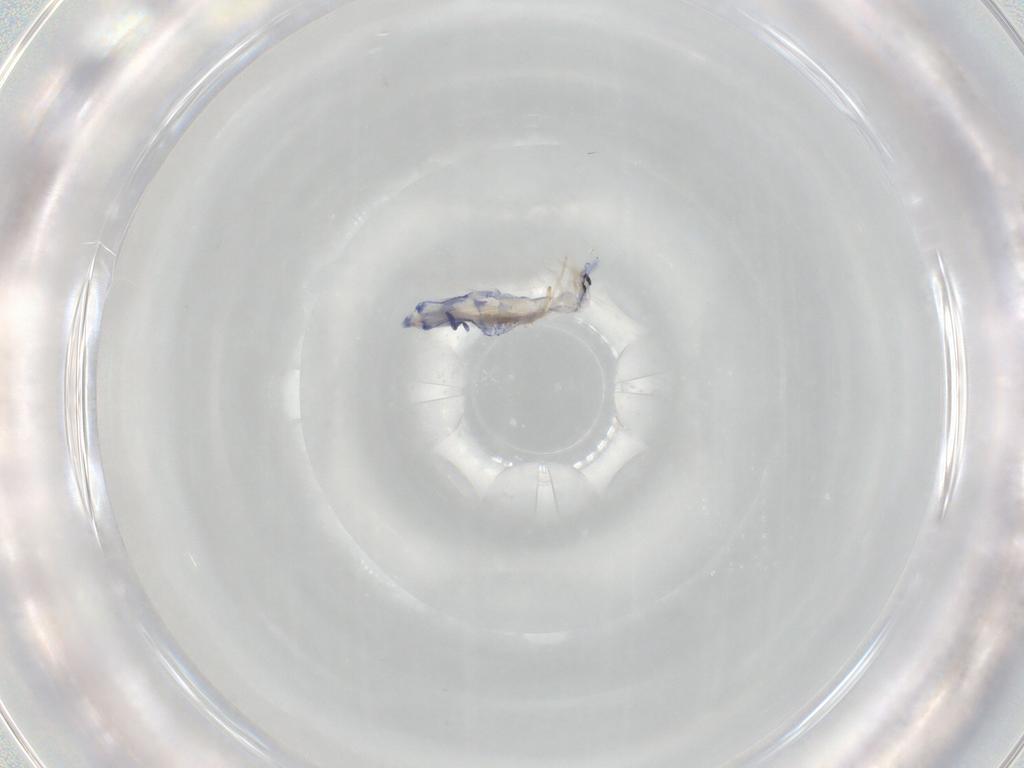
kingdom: Animalia
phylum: Arthropoda
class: Collembola
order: Entomobryomorpha
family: Entomobryidae
